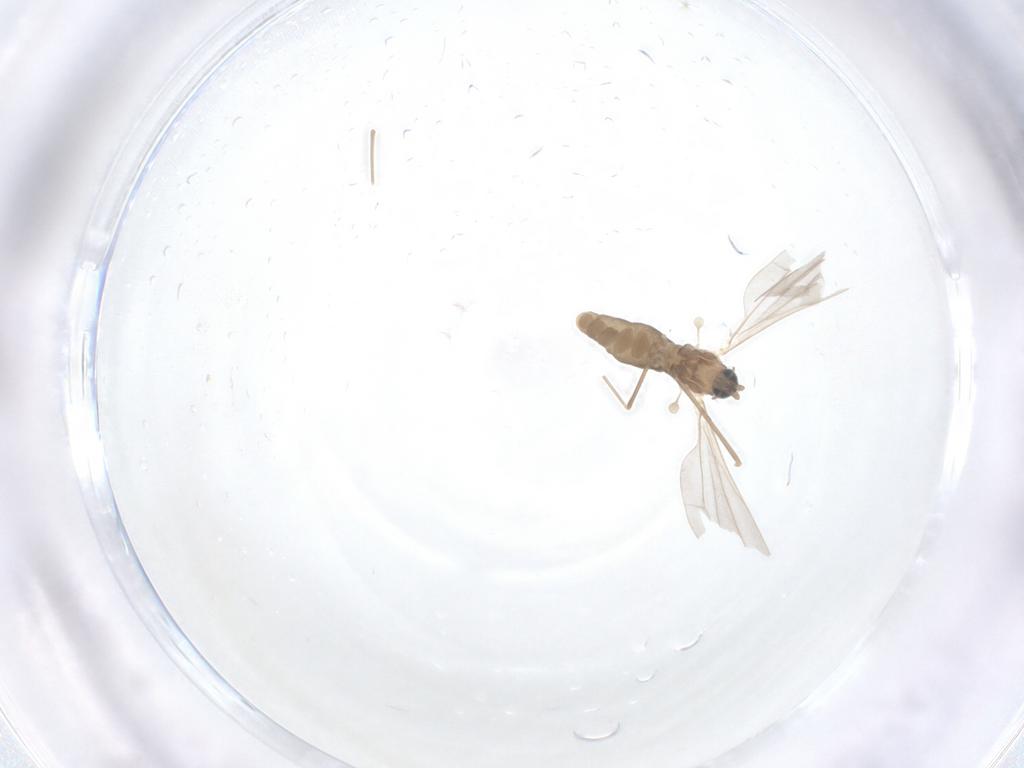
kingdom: Animalia
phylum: Arthropoda
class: Insecta
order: Diptera
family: Cecidomyiidae
